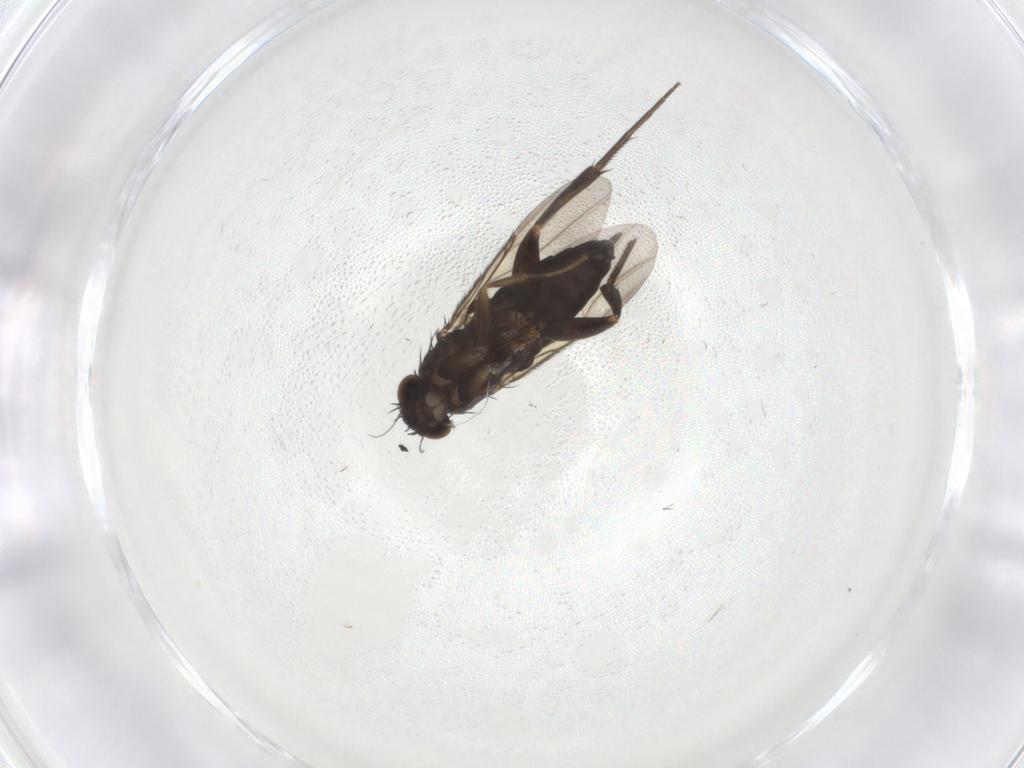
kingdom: Animalia
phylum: Arthropoda
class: Insecta
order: Diptera
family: Phoridae
